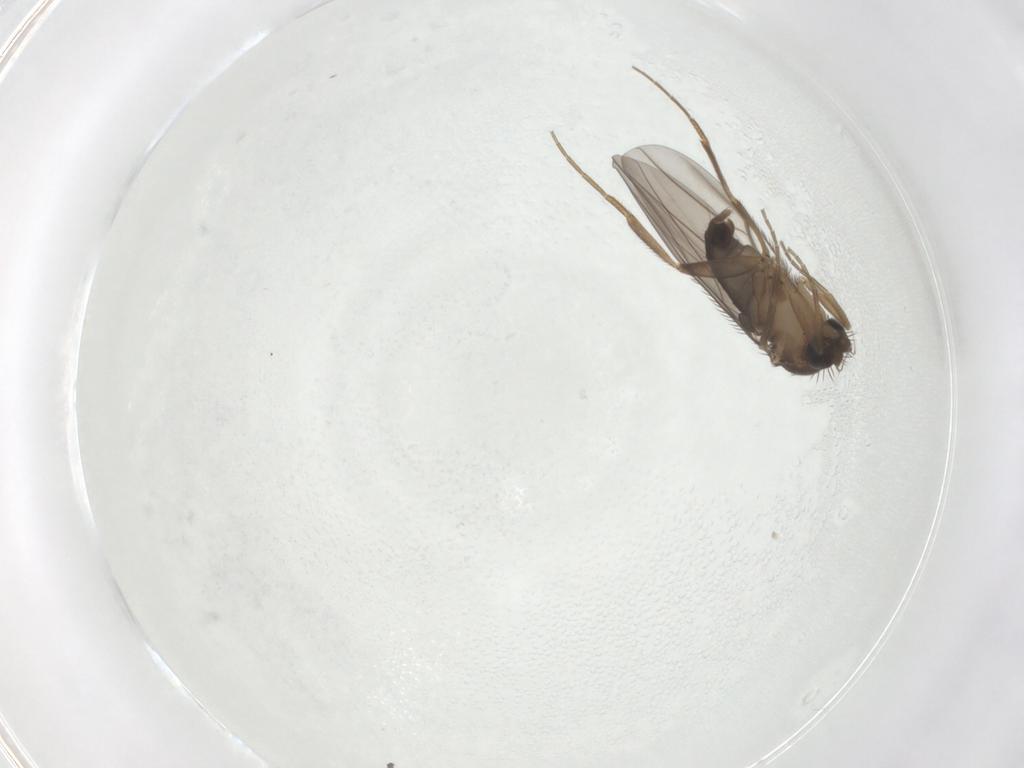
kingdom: Animalia
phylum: Arthropoda
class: Insecta
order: Diptera
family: Phoridae
